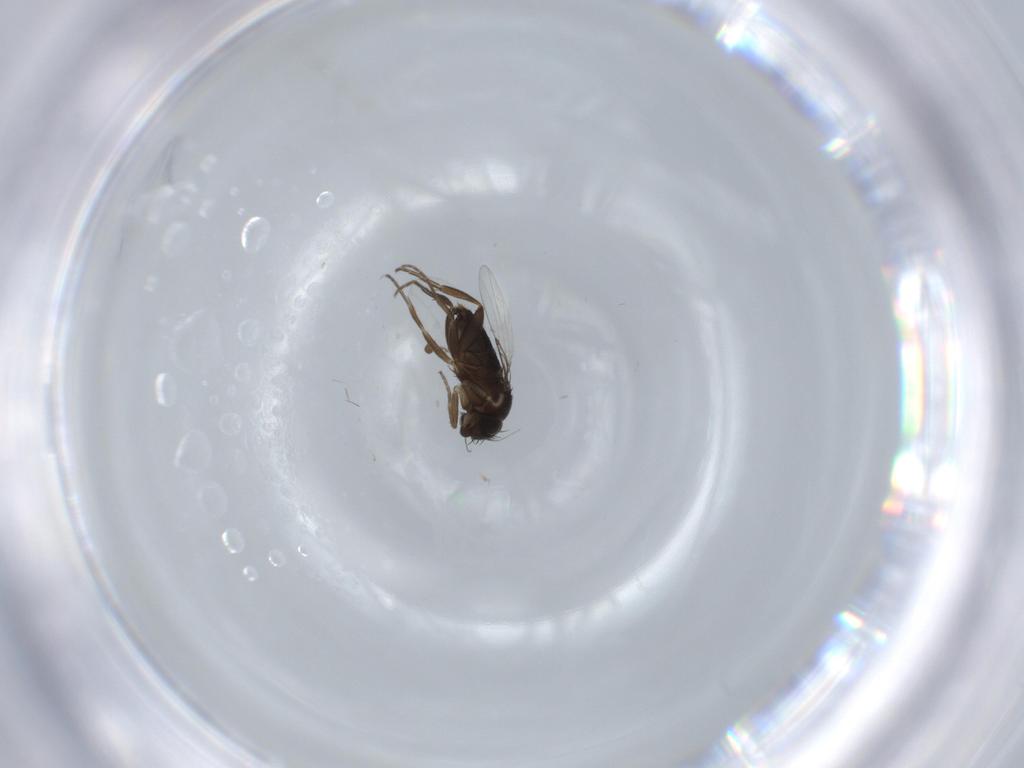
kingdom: Animalia
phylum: Arthropoda
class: Insecta
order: Diptera
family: Phoridae
